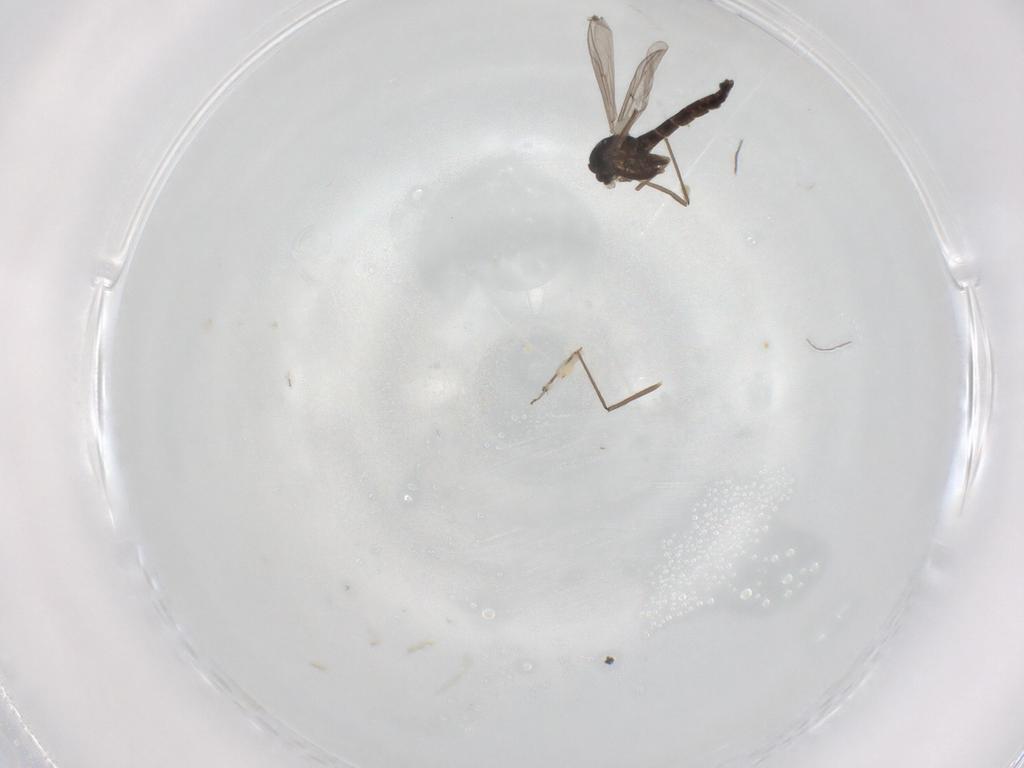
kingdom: Animalia
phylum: Arthropoda
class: Insecta
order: Diptera
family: Chironomidae
